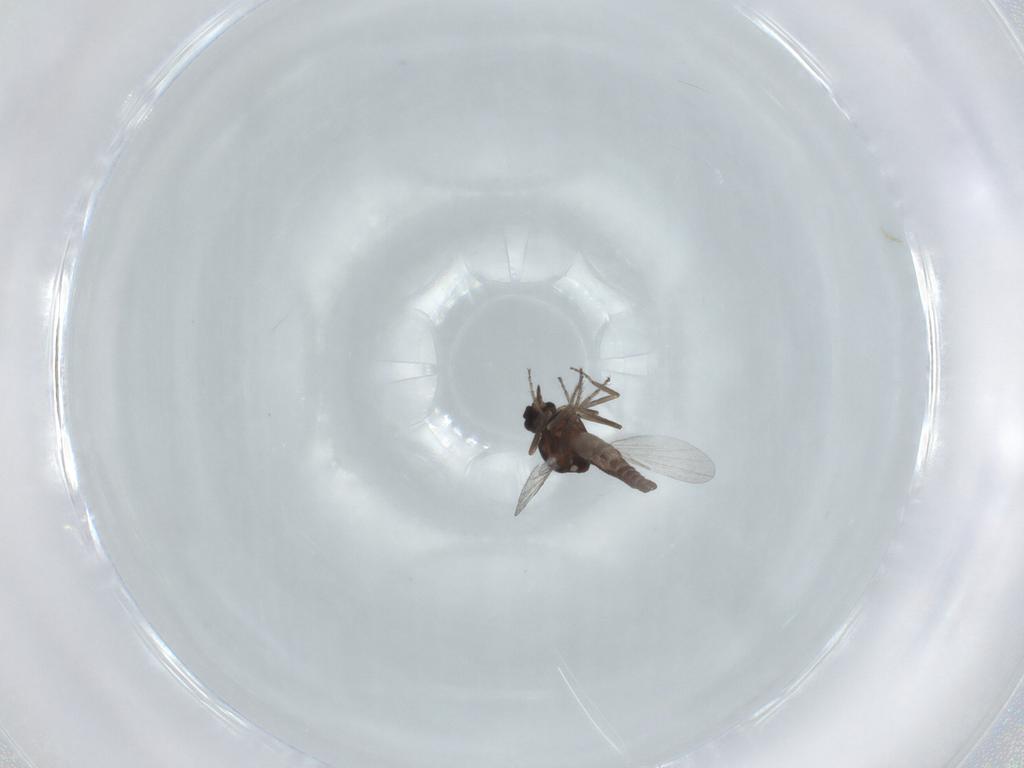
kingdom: Animalia
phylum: Arthropoda
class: Insecta
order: Diptera
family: Ceratopogonidae
